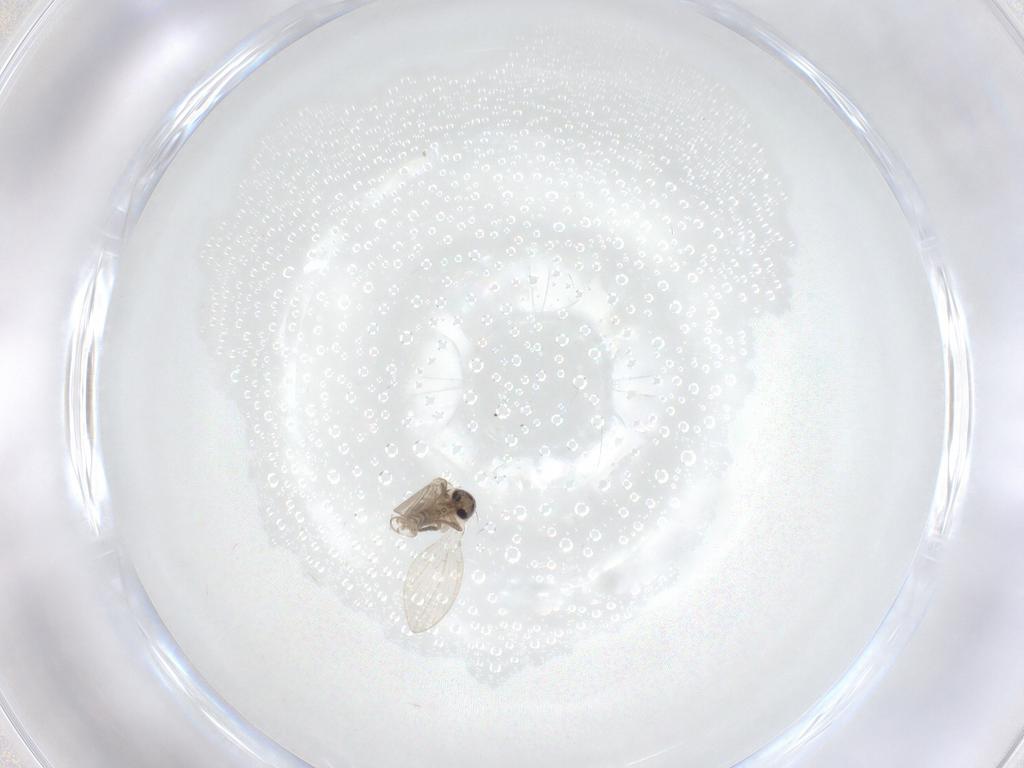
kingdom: Animalia
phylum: Arthropoda
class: Insecta
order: Diptera
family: Psychodidae
